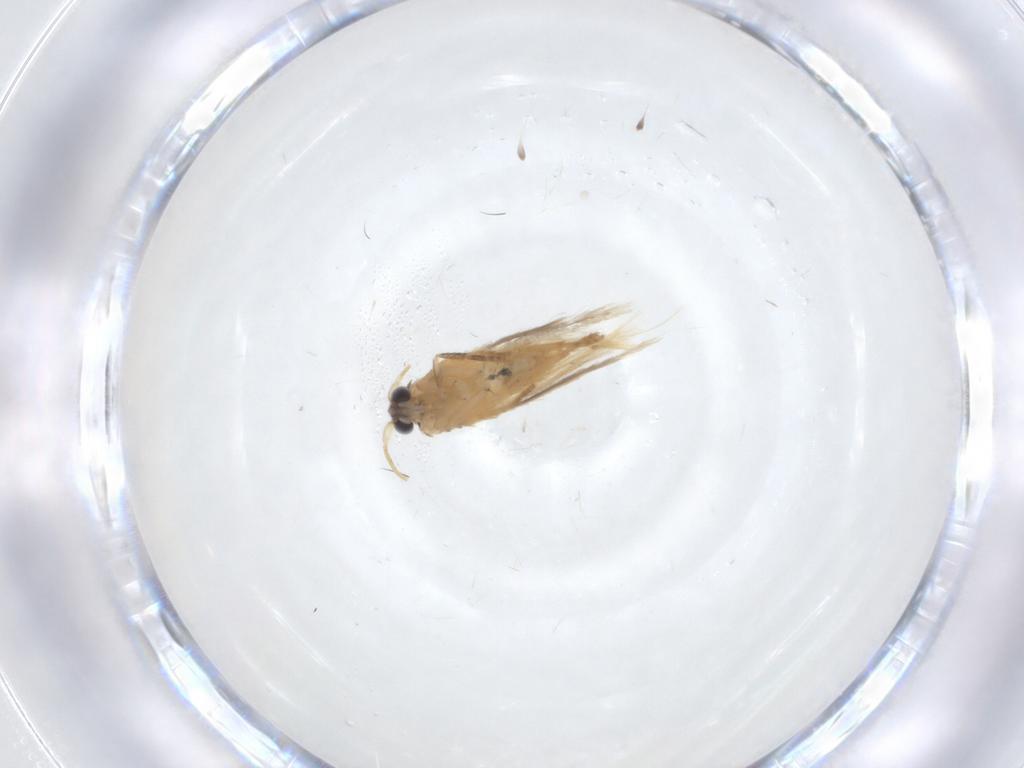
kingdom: Animalia
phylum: Arthropoda
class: Insecta
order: Lepidoptera
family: Nepticulidae
